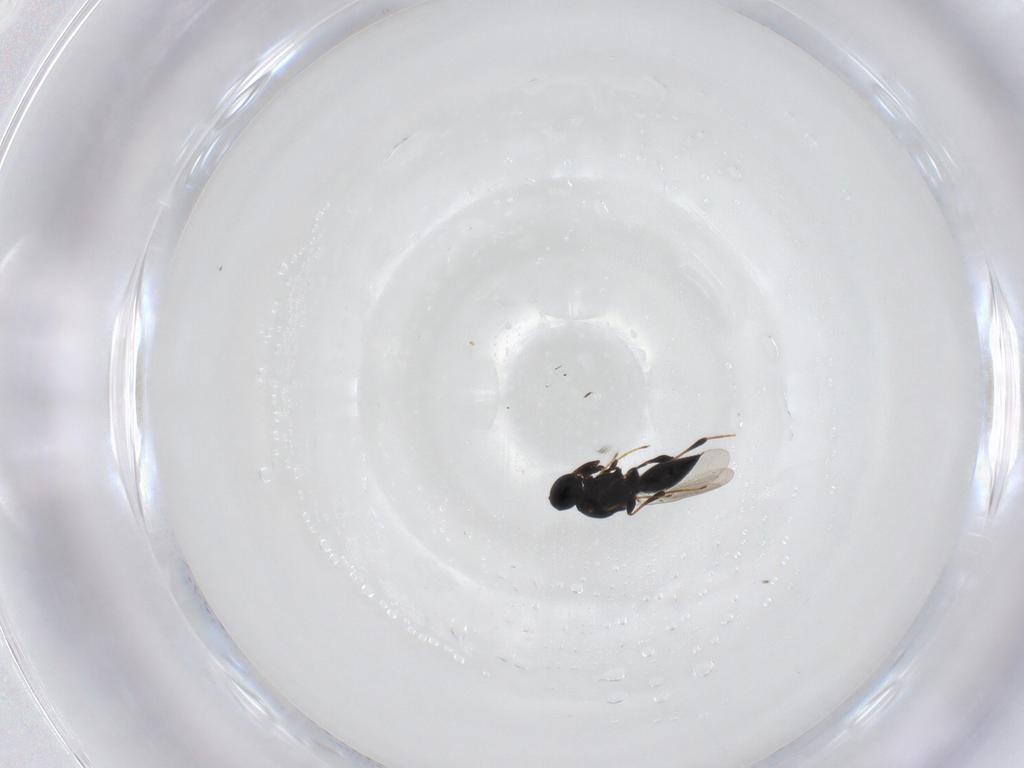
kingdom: Animalia
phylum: Arthropoda
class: Insecta
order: Hymenoptera
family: Platygastridae
